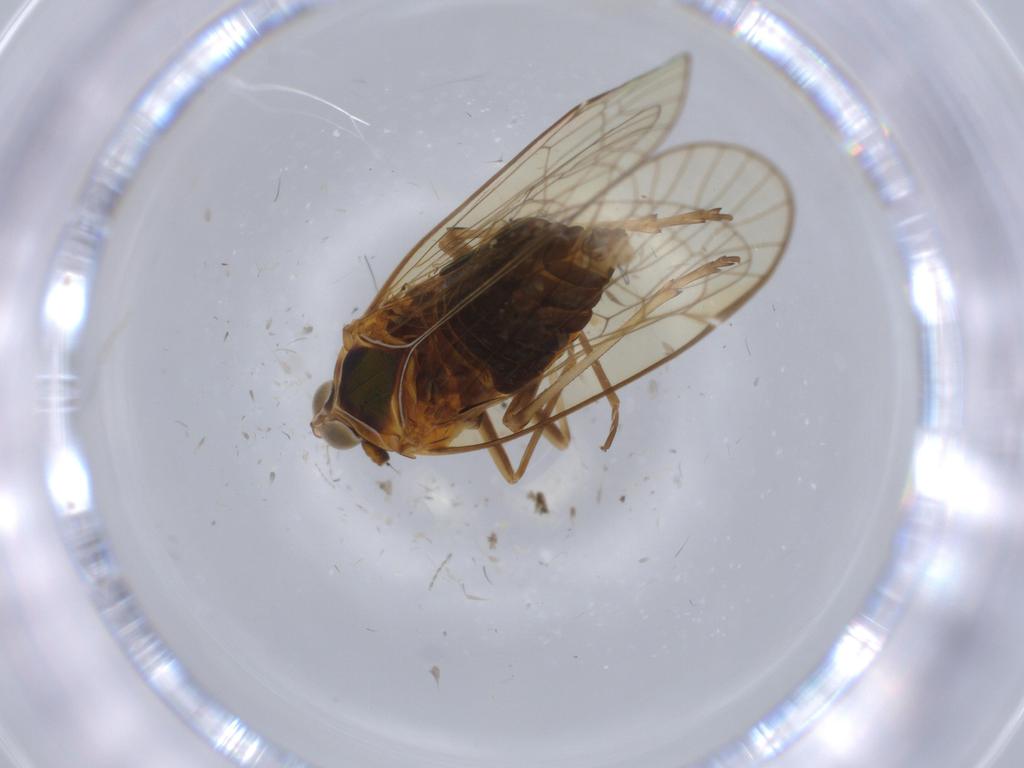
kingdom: Animalia
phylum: Arthropoda
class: Insecta
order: Hemiptera
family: Kinnaridae
